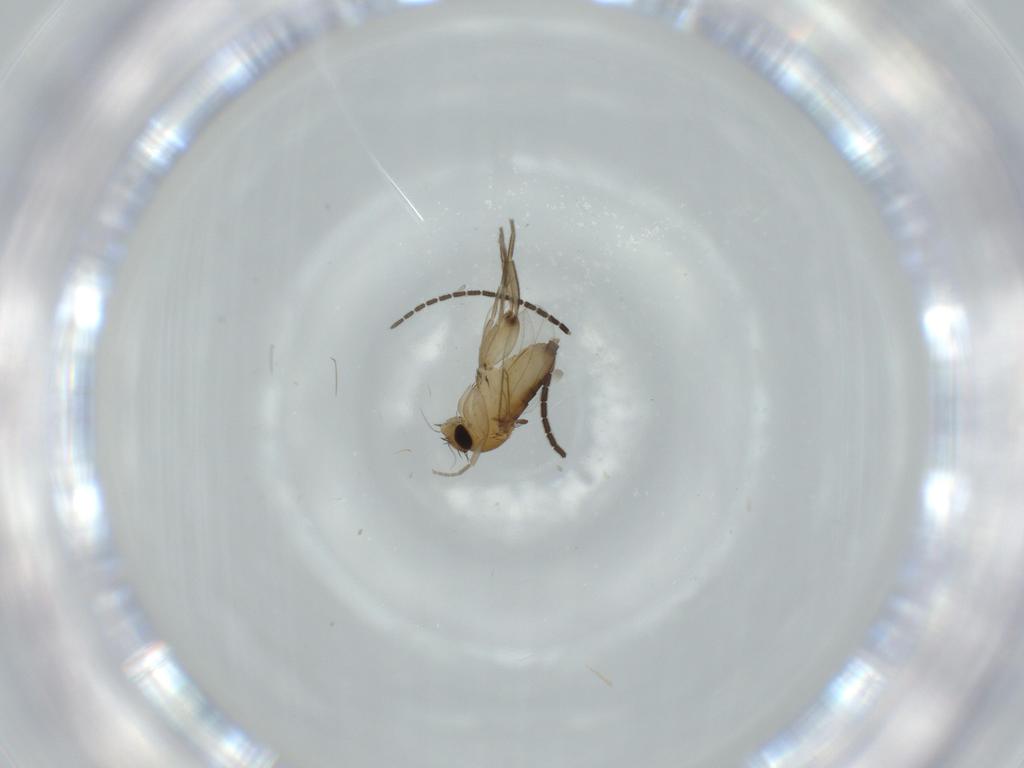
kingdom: Animalia
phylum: Arthropoda
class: Insecta
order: Diptera
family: Phoridae
